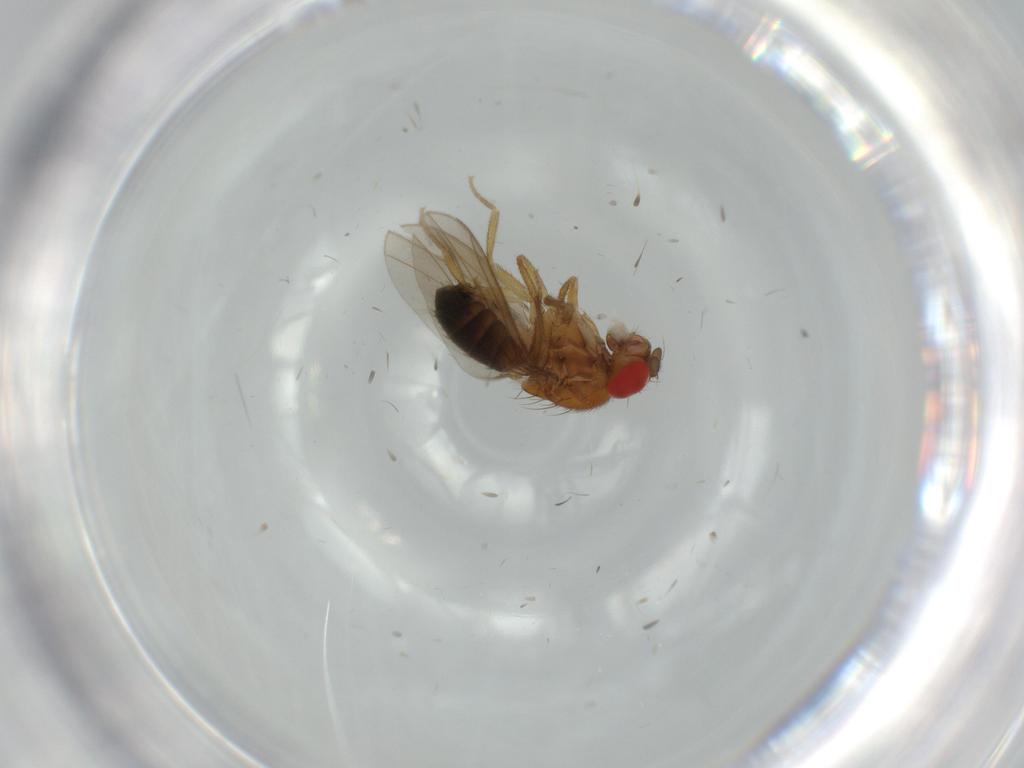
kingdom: Animalia
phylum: Arthropoda
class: Insecta
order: Diptera
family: Drosophilidae
